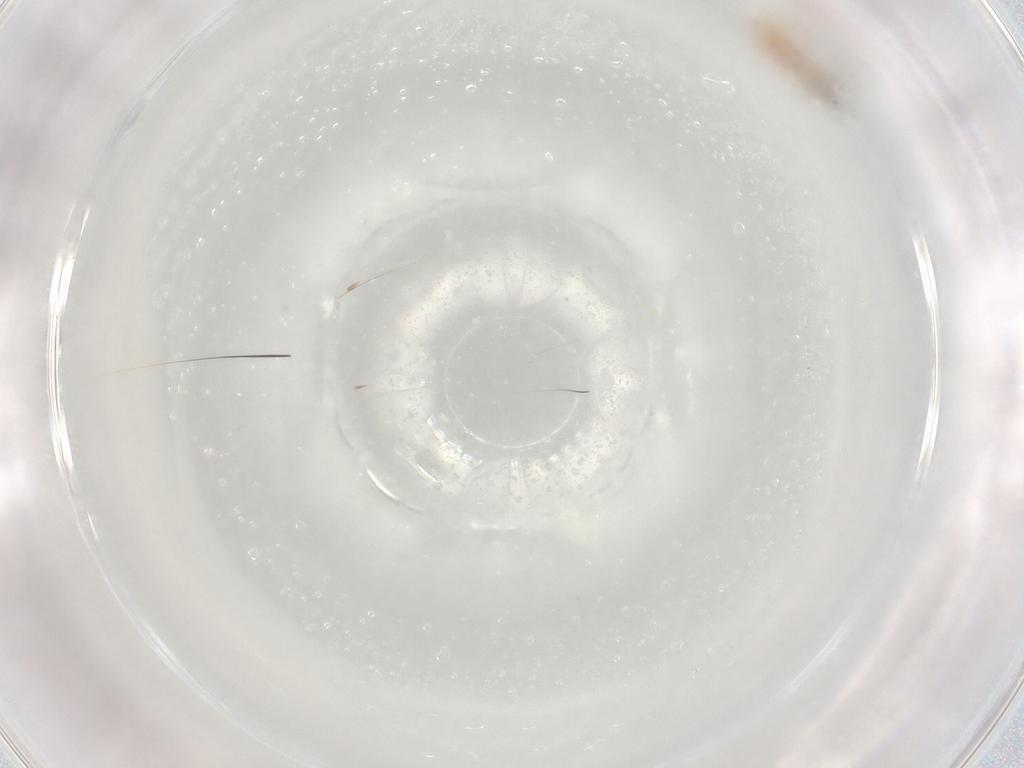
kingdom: Animalia
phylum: Arthropoda
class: Insecta
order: Diptera
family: Cecidomyiidae
